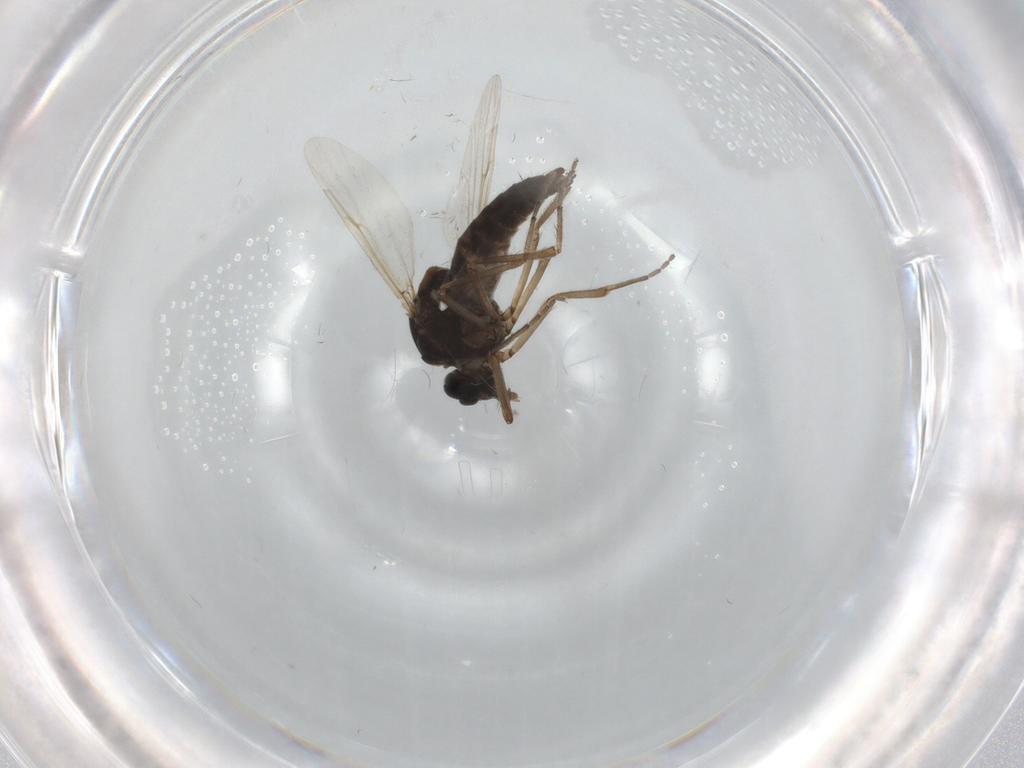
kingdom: Animalia
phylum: Arthropoda
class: Insecta
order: Diptera
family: Ceratopogonidae
